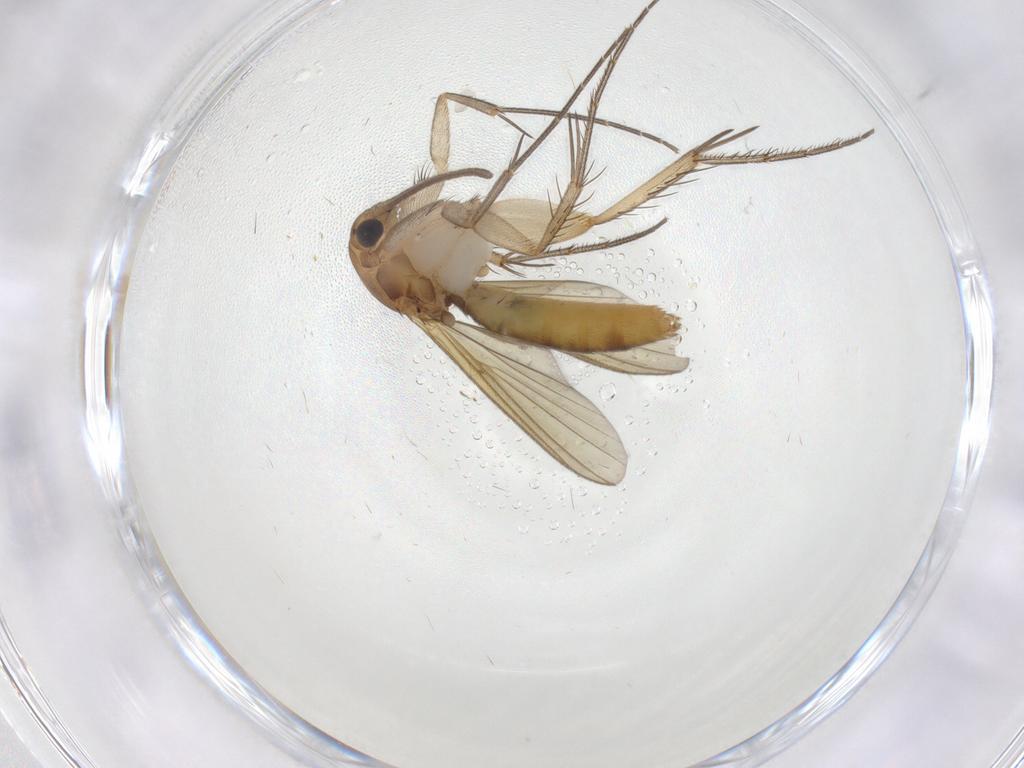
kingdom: Animalia
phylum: Arthropoda
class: Insecta
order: Diptera
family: Mycetophilidae
